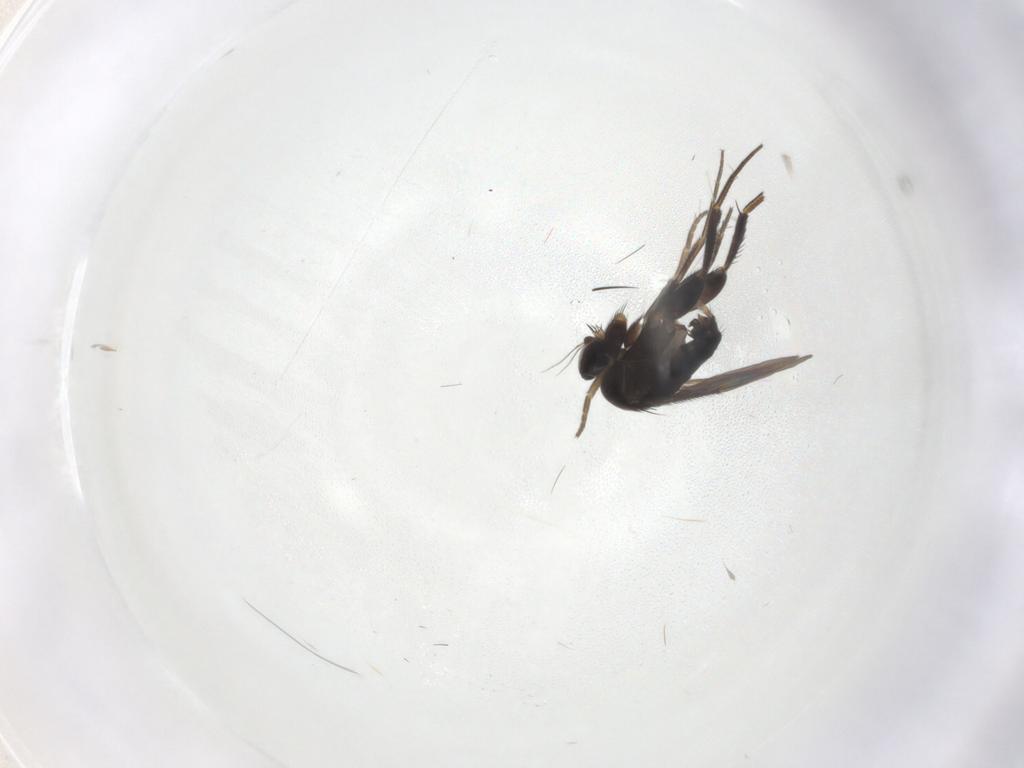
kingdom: Animalia
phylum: Arthropoda
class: Insecta
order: Diptera
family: Phoridae
